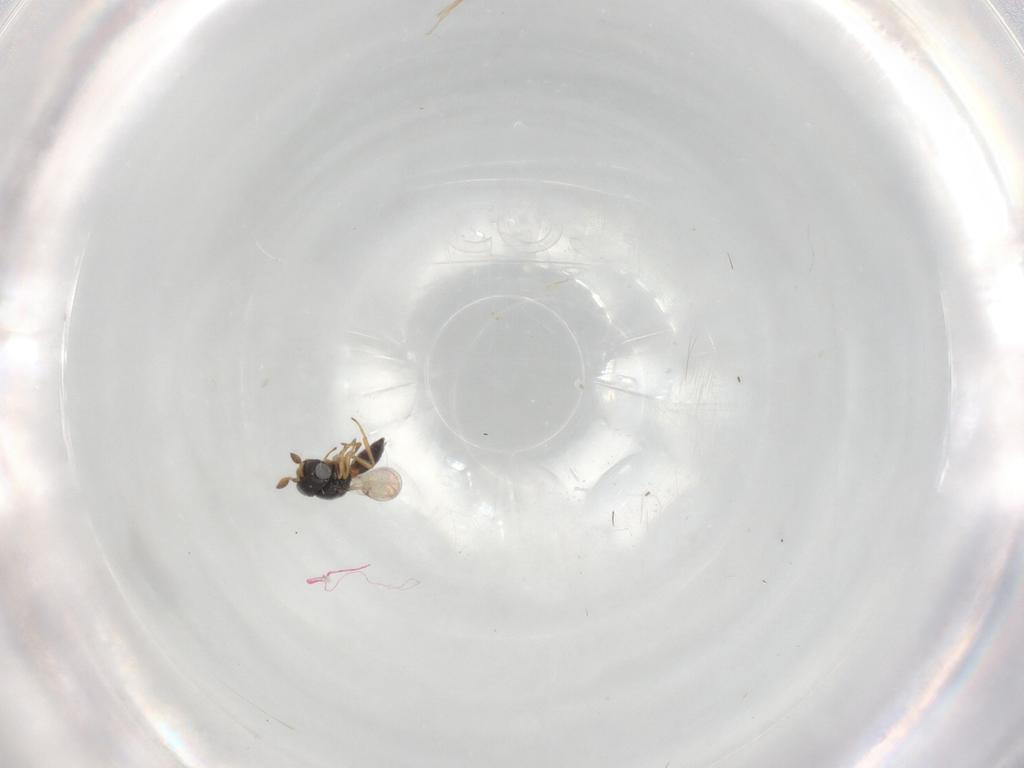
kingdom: Animalia
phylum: Arthropoda
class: Insecta
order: Hymenoptera
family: Scelionidae
